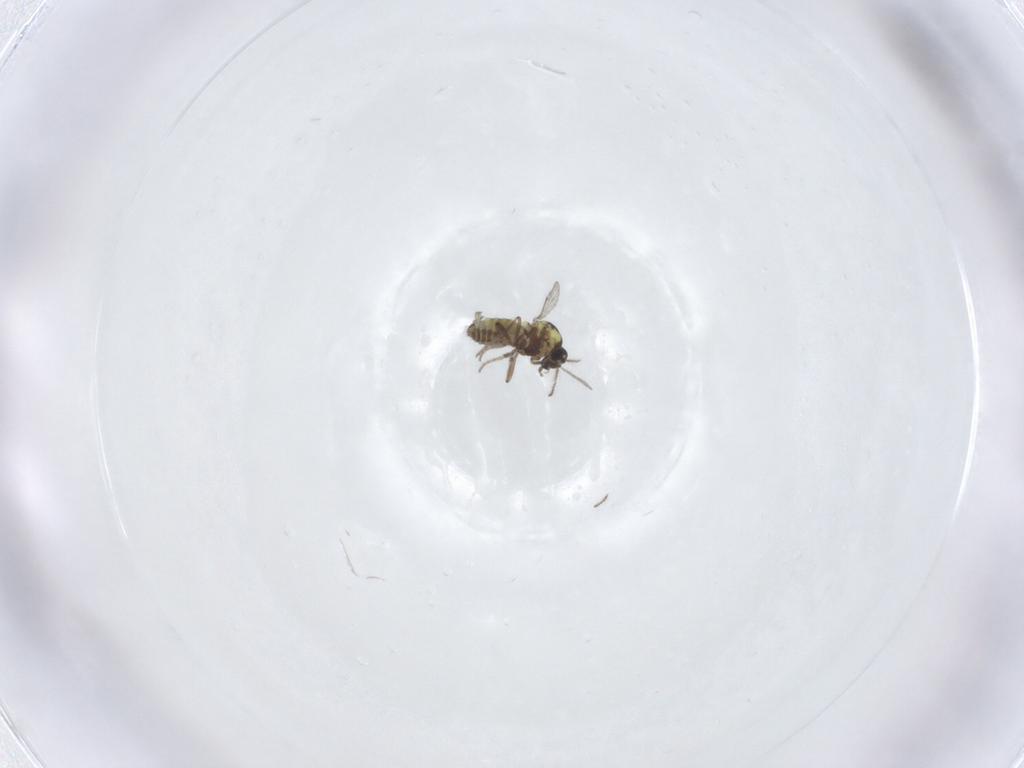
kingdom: Animalia
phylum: Arthropoda
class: Insecta
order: Diptera
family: Ceratopogonidae
